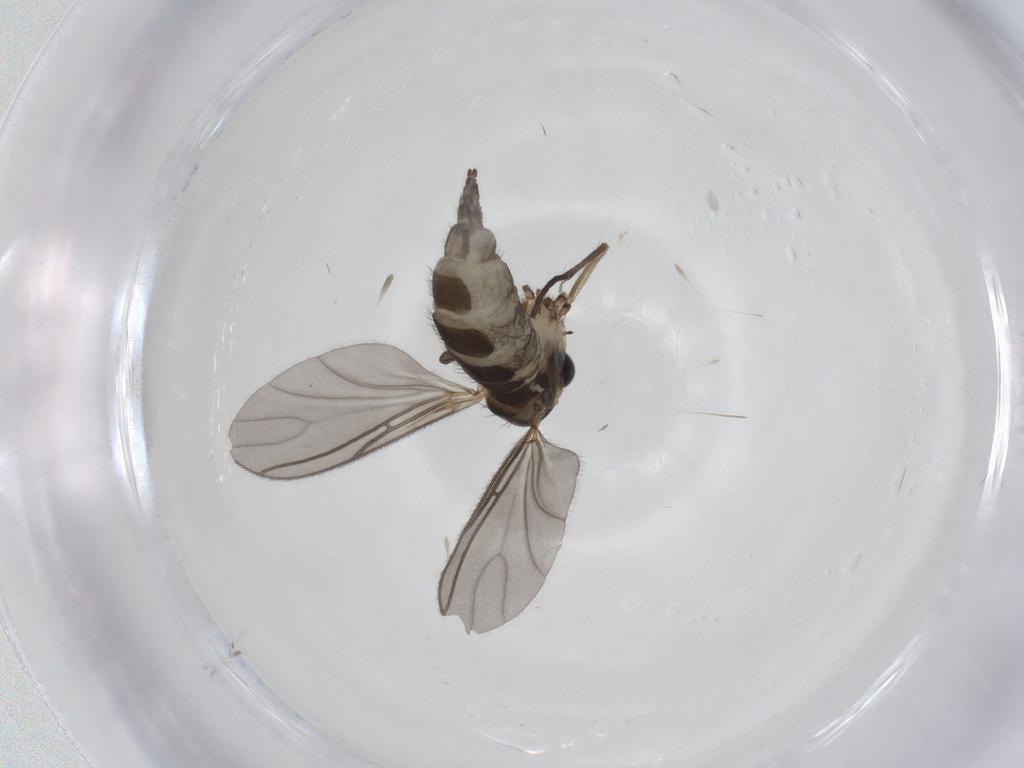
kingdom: Animalia
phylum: Arthropoda
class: Insecta
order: Diptera
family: Sciaridae
